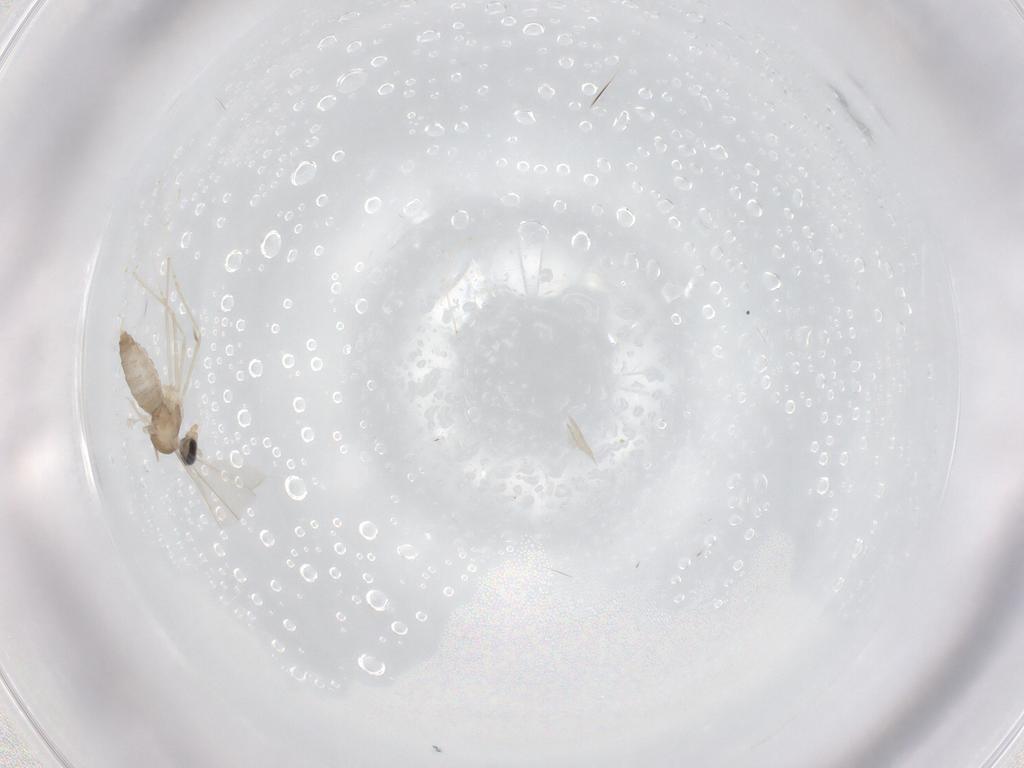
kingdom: Animalia
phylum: Arthropoda
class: Insecta
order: Diptera
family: Cecidomyiidae
